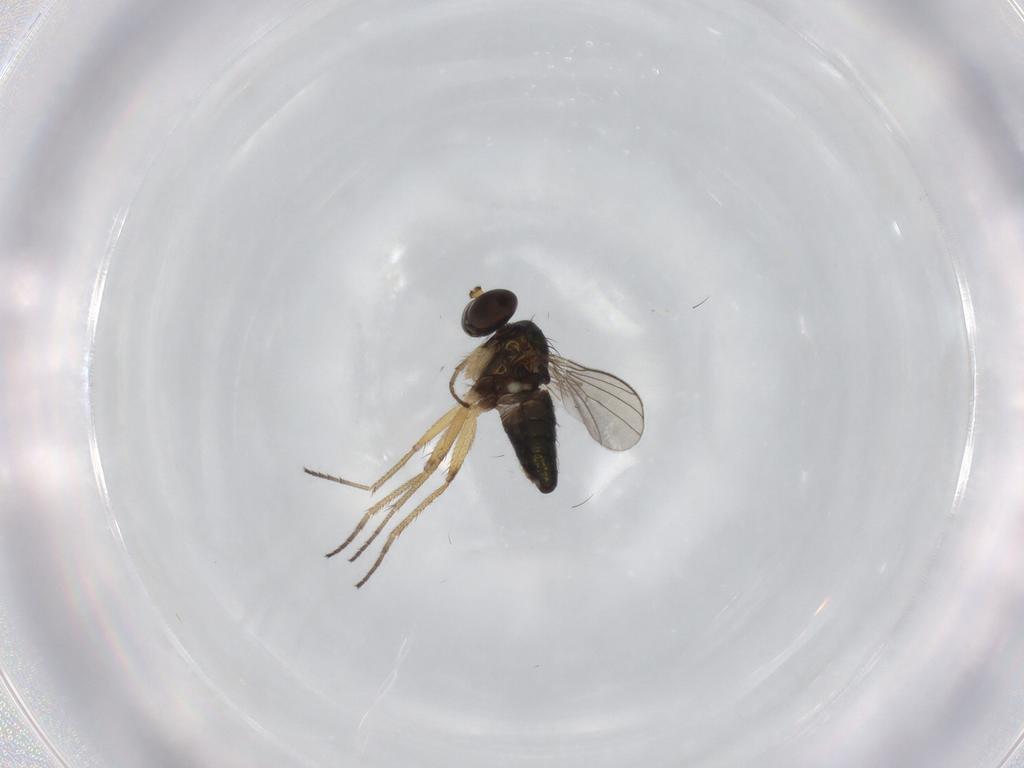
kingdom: Animalia
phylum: Arthropoda
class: Insecta
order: Diptera
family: Dolichopodidae
